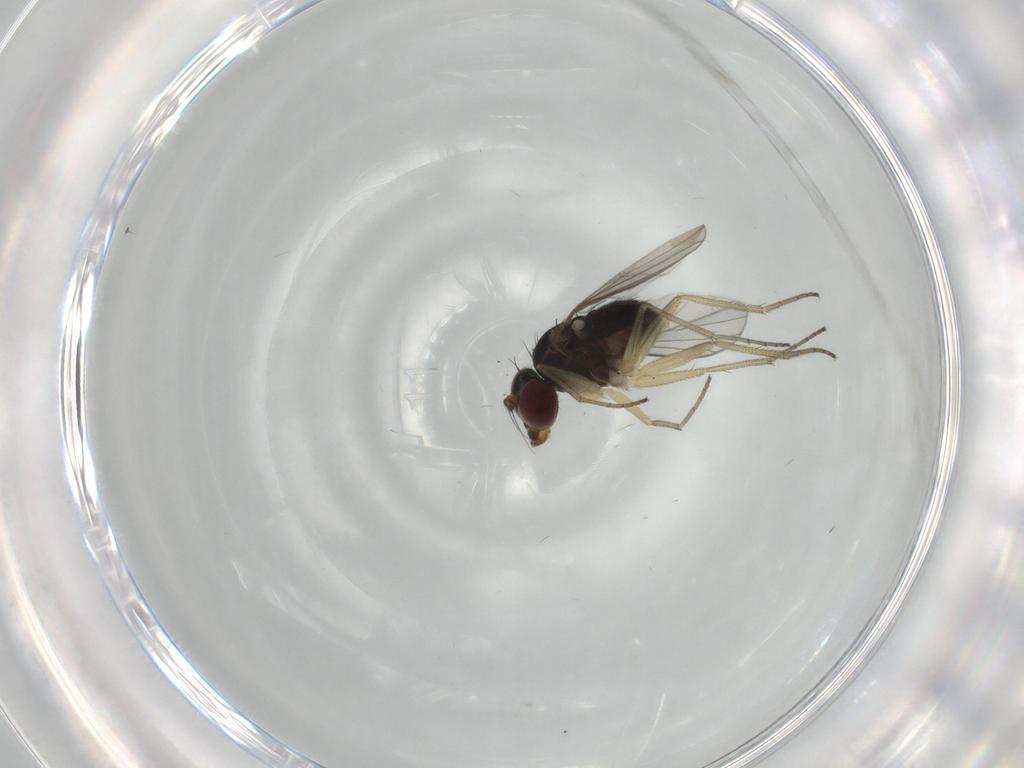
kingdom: Animalia
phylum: Arthropoda
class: Insecta
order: Diptera
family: Dolichopodidae
